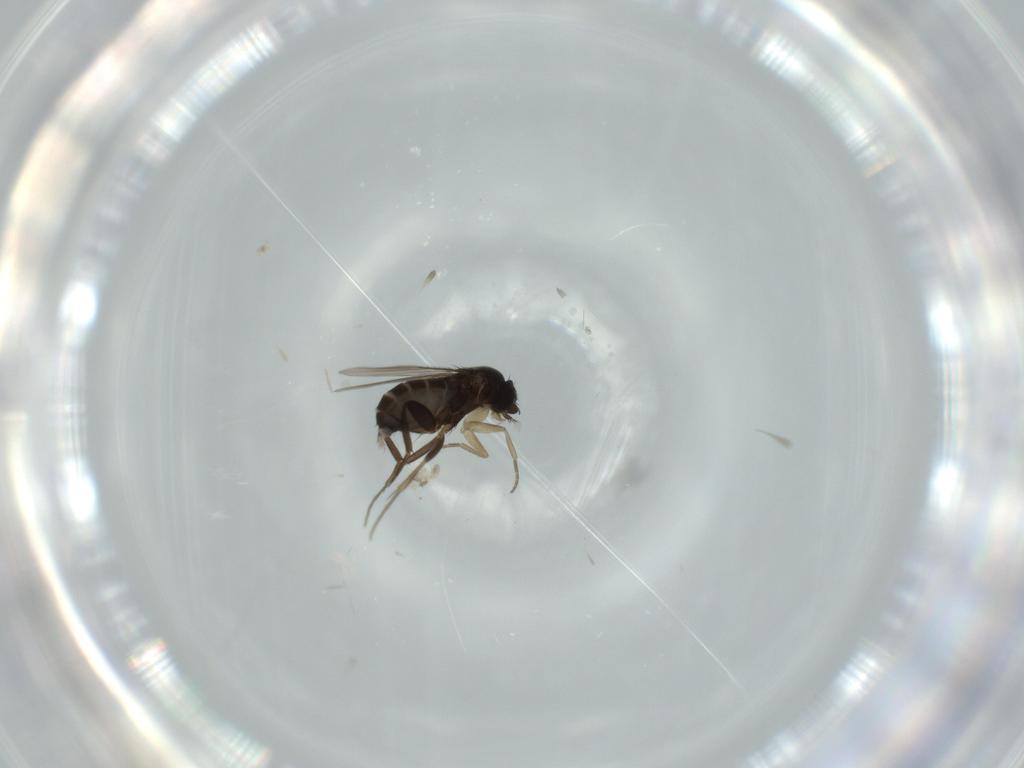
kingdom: Animalia
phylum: Arthropoda
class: Insecta
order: Diptera
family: Phoridae
